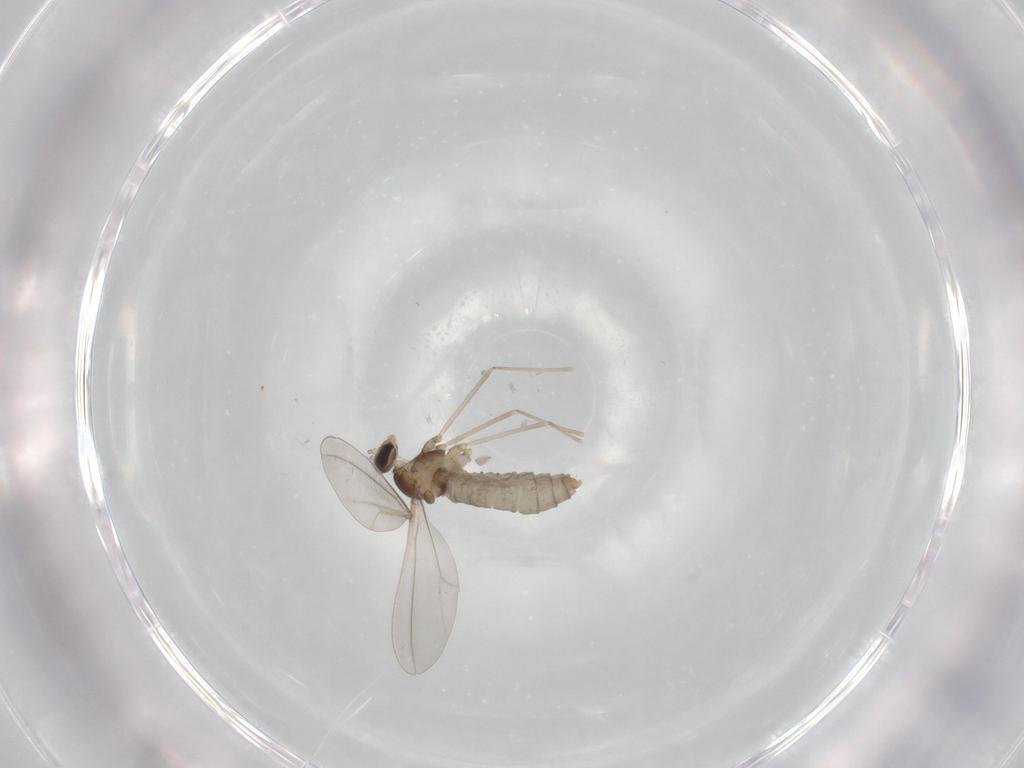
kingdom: Animalia
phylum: Arthropoda
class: Insecta
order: Diptera
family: Cecidomyiidae
